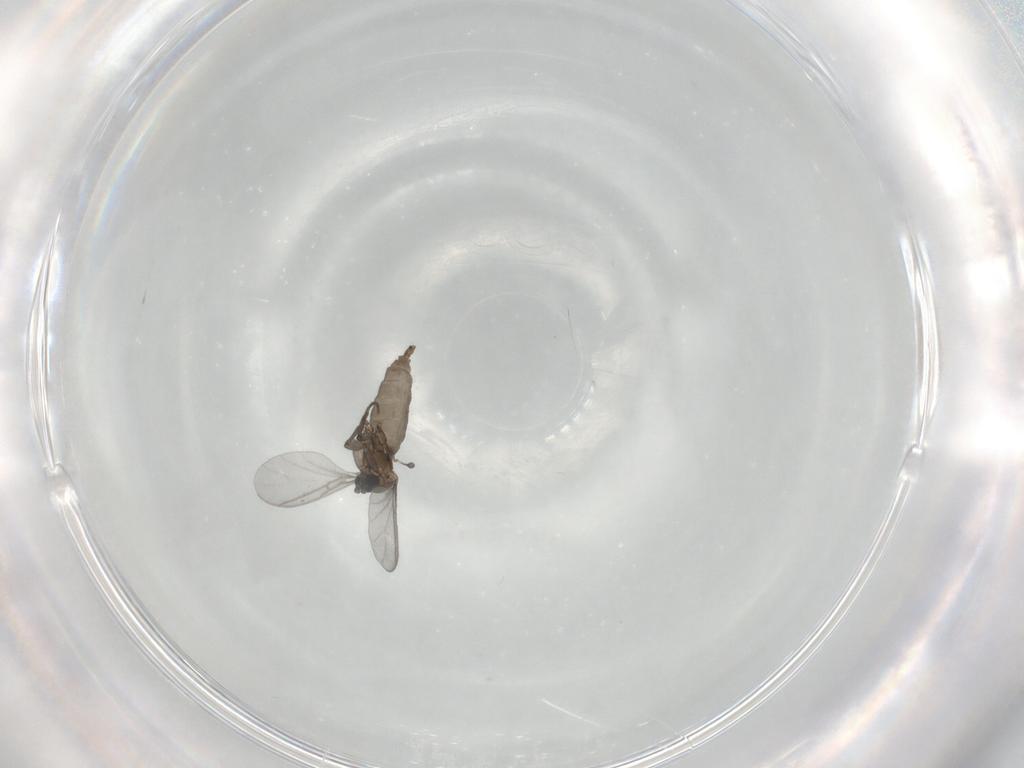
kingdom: Animalia
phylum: Arthropoda
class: Insecta
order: Diptera
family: Sciaridae
